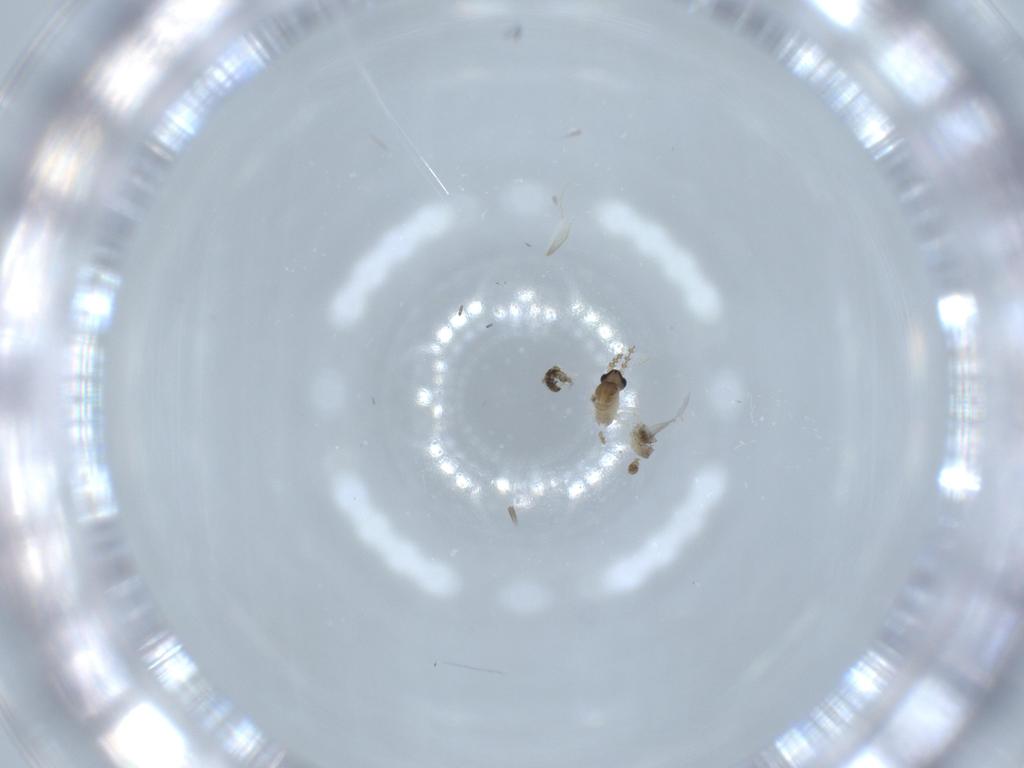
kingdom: Animalia
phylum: Arthropoda
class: Insecta
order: Diptera
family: Cecidomyiidae
